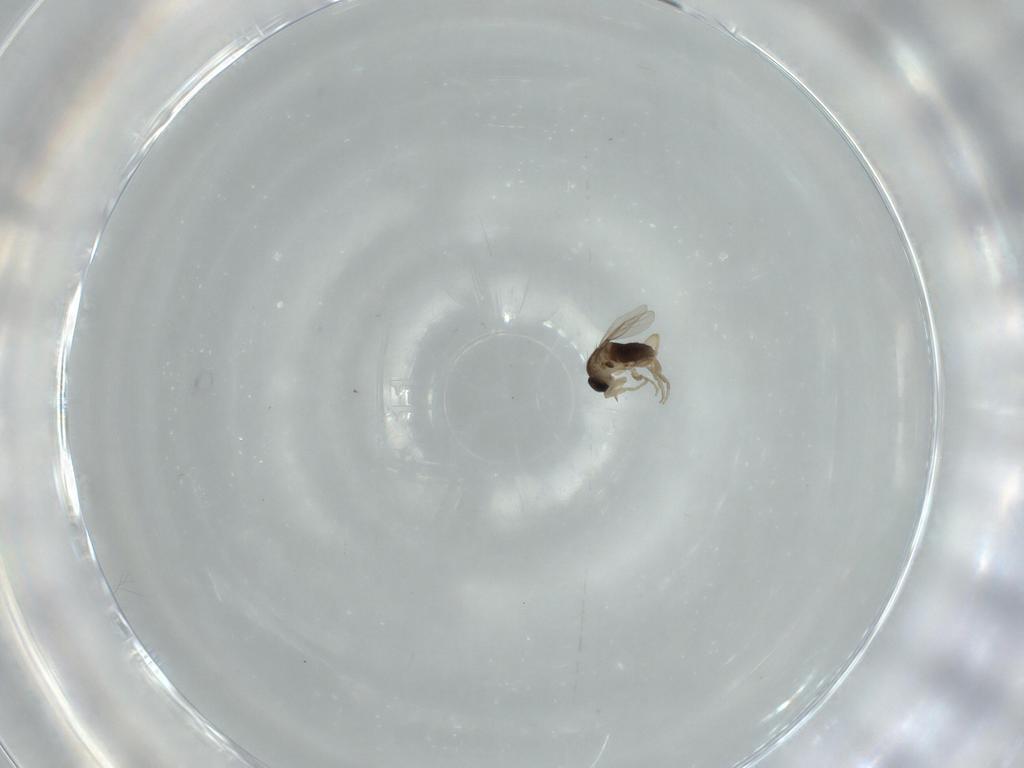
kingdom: Animalia
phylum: Arthropoda
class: Insecta
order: Diptera
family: Phoridae
